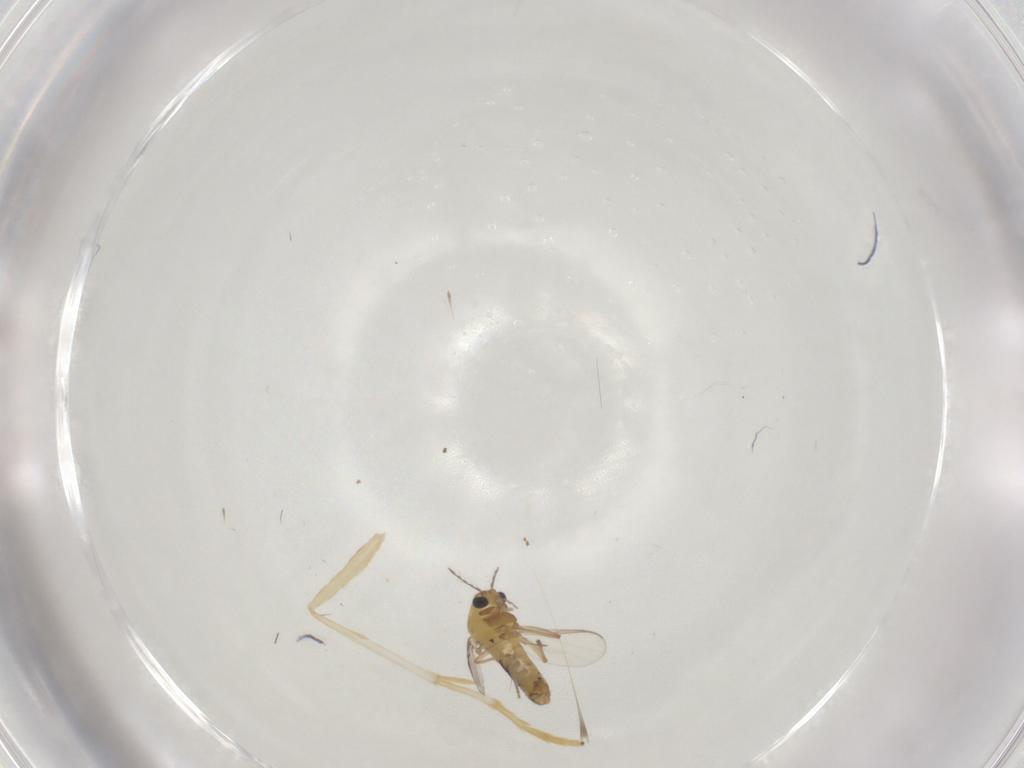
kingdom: Animalia
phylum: Arthropoda
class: Insecta
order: Diptera
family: Chironomidae
